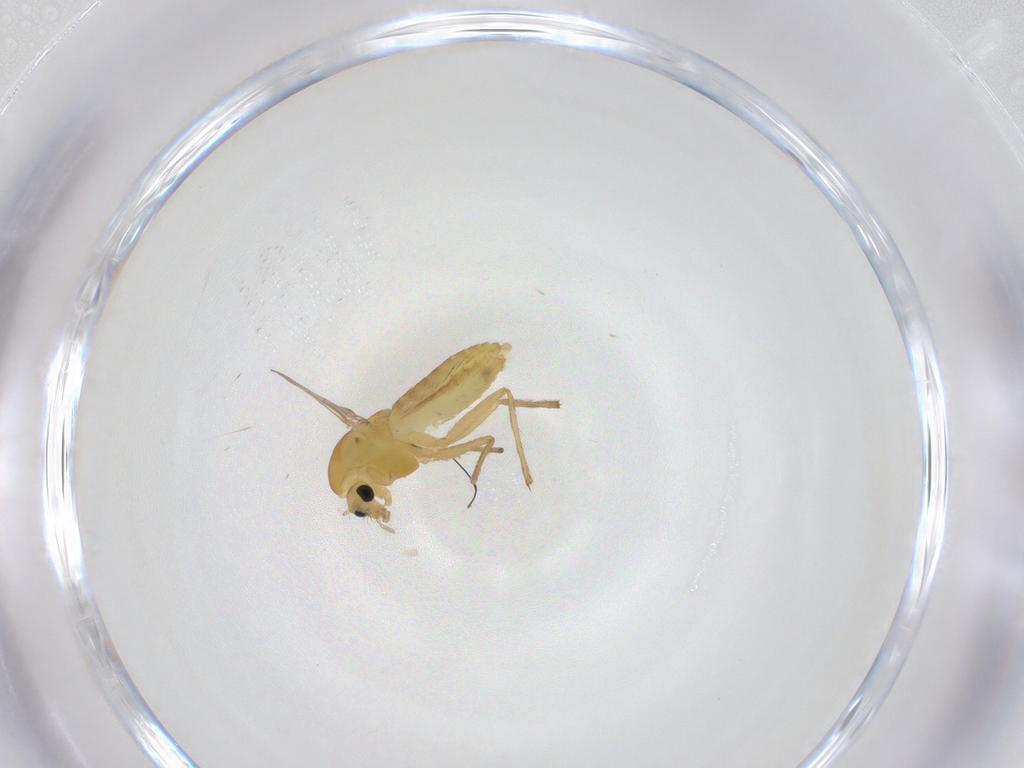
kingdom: Animalia
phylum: Arthropoda
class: Insecta
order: Diptera
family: Chironomidae
